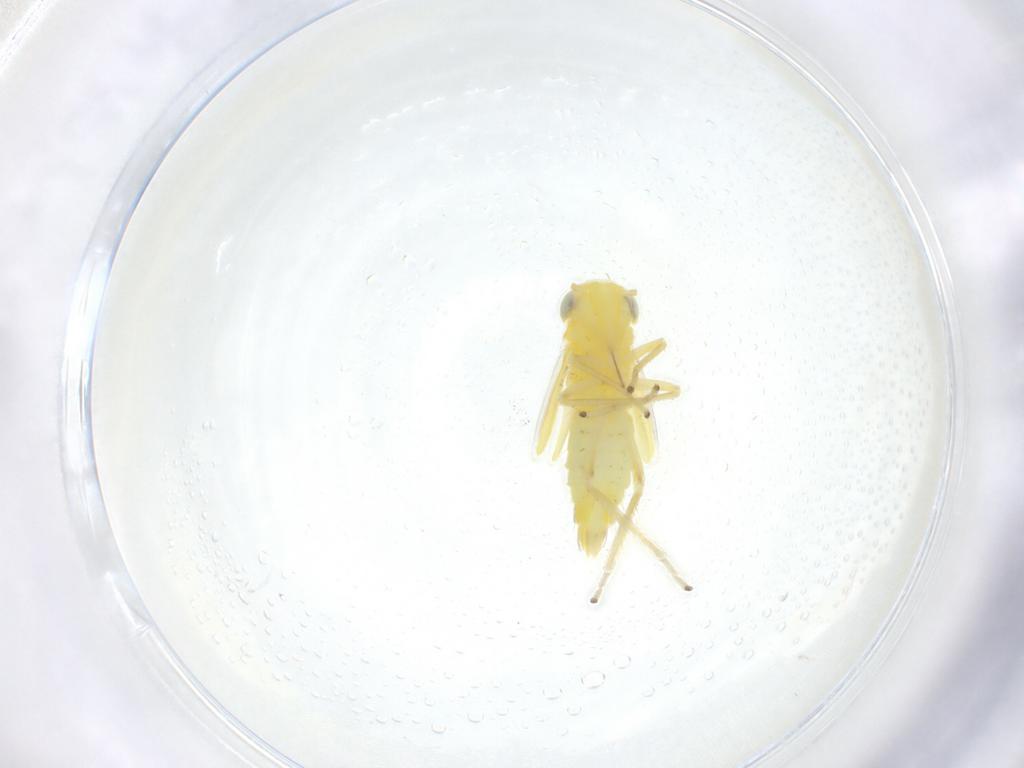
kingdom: Animalia
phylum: Arthropoda
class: Insecta
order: Hemiptera
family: Cicadellidae
